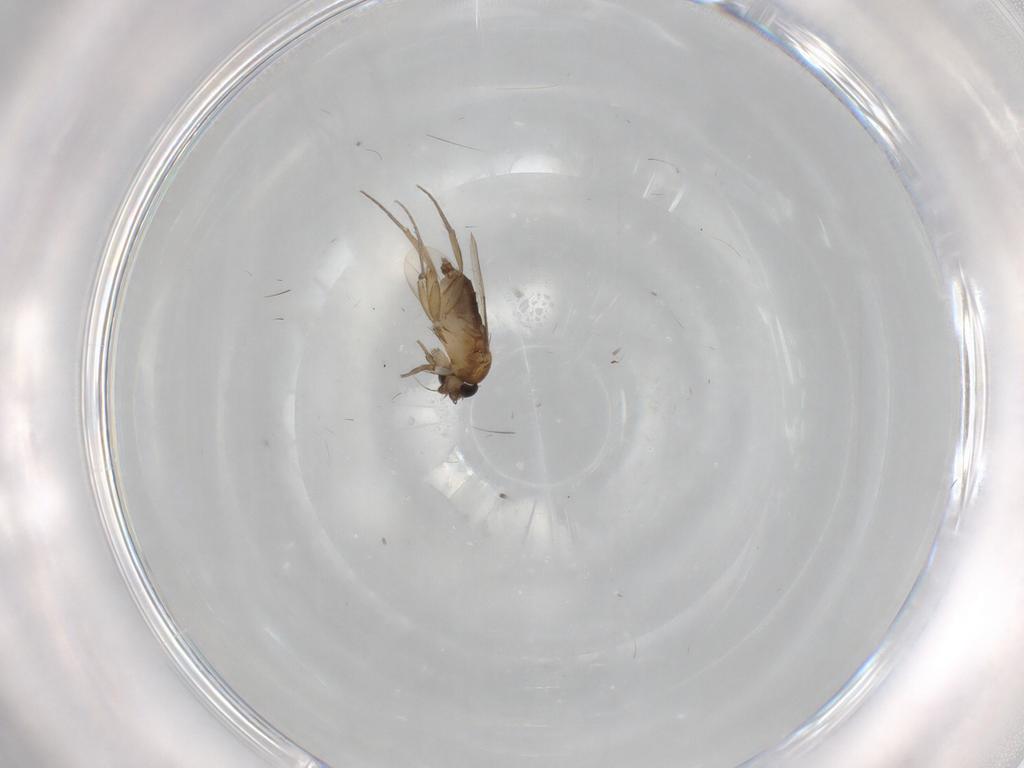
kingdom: Animalia
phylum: Arthropoda
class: Insecta
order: Diptera
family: Phoridae
